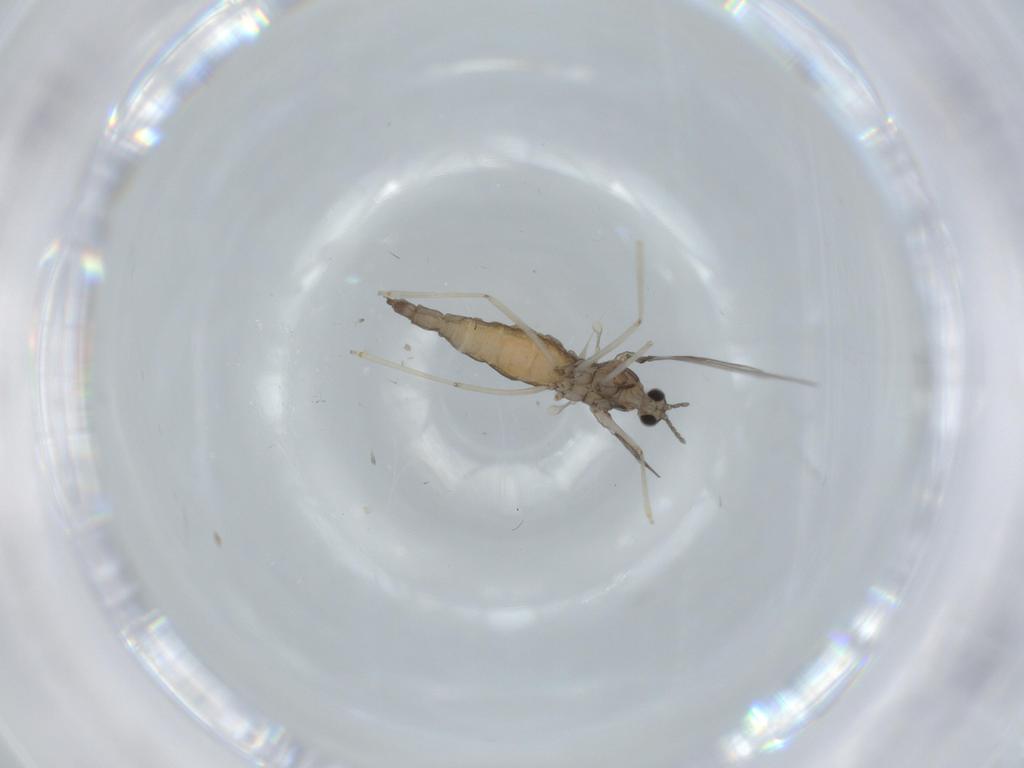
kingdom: Animalia
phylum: Arthropoda
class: Insecta
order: Diptera
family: Cecidomyiidae
